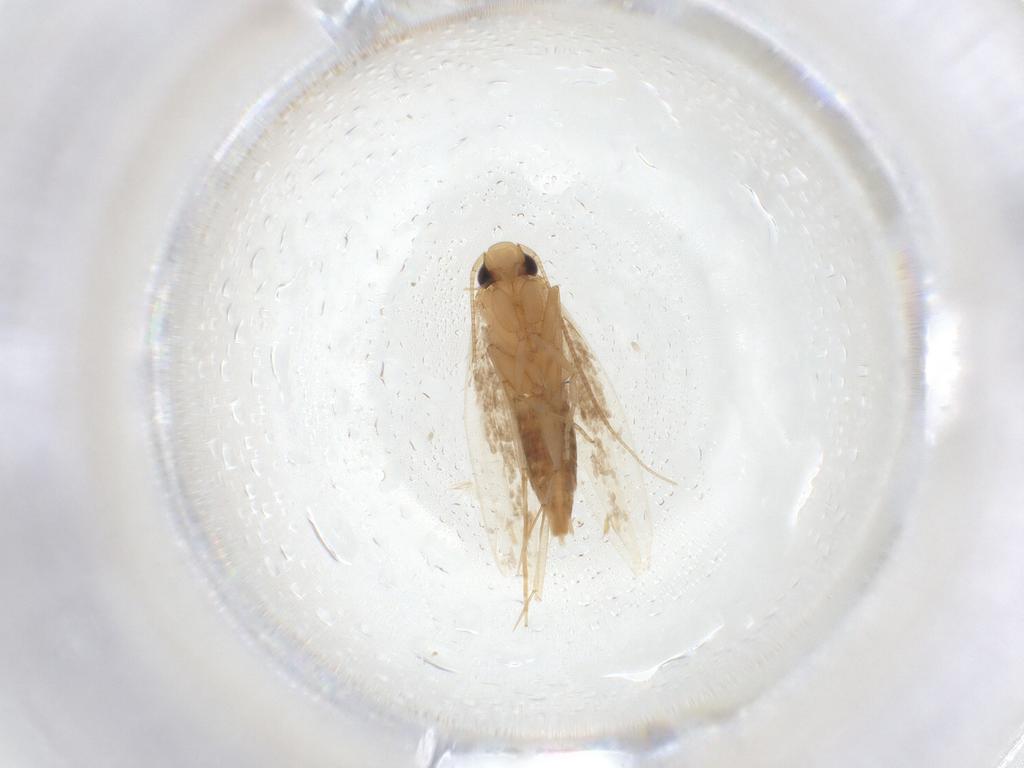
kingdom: Animalia
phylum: Arthropoda
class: Insecta
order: Lepidoptera
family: Tineidae
